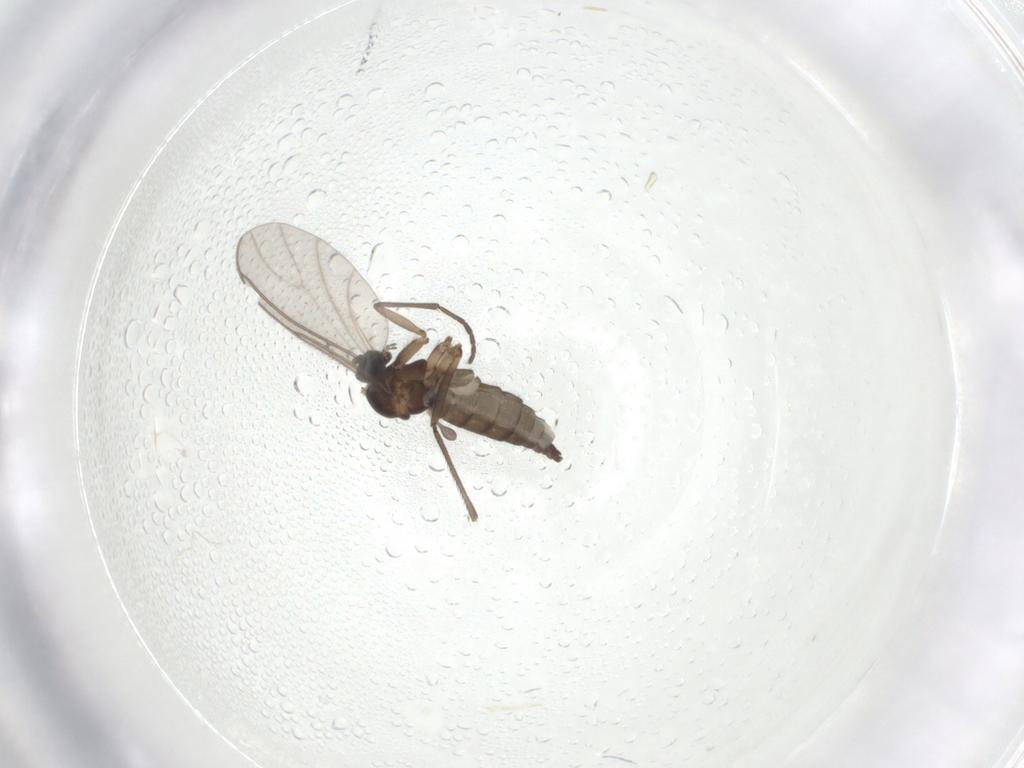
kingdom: Animalia
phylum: Arthropoda
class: Insecta
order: Diptera
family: Sciaridae
